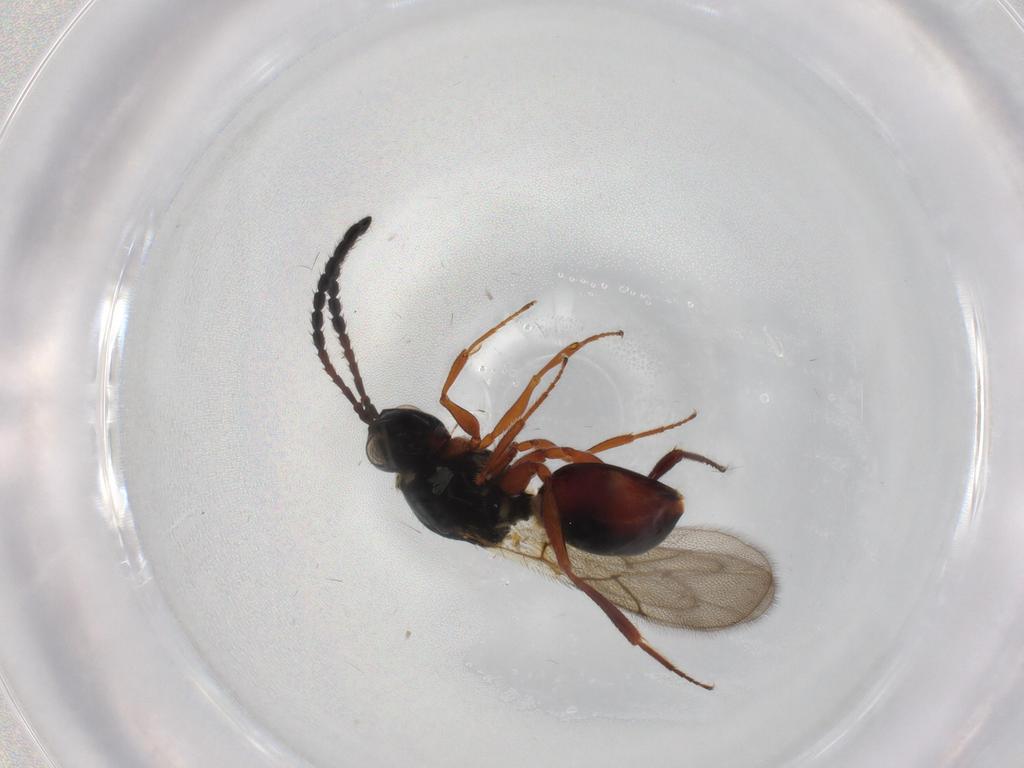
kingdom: Animalia
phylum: Arthropoda
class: Insecta
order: Hymenoptera
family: Figitidae
